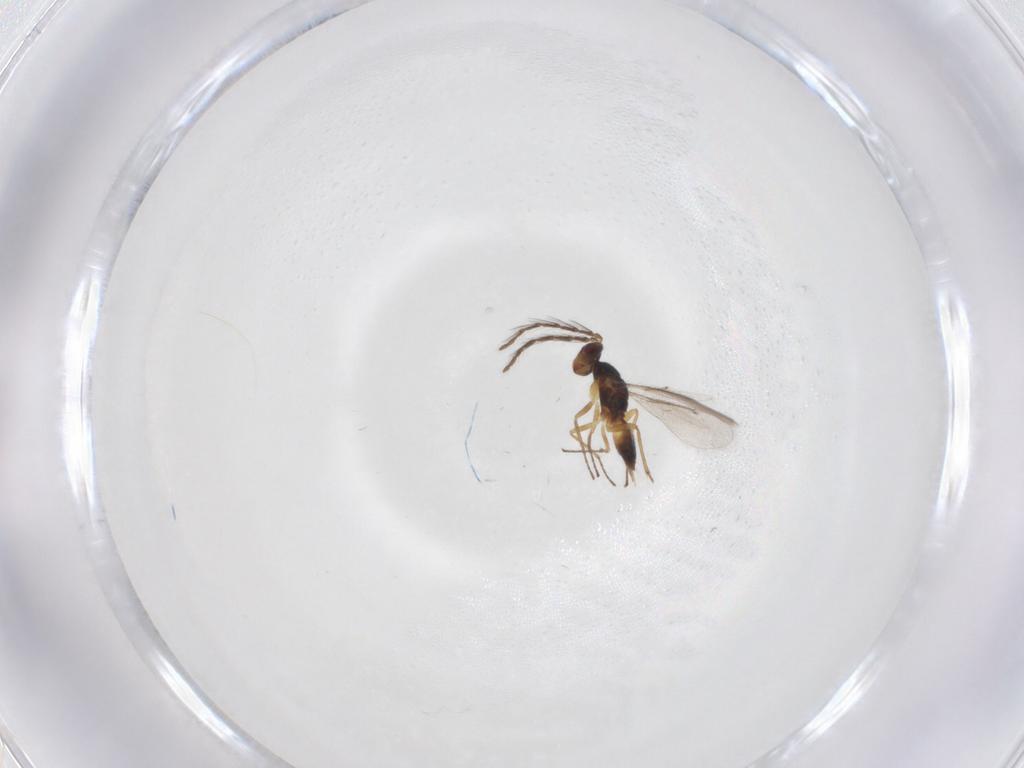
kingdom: Animalia
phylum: Arthropoda
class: Insecta
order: Hymenoptera
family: Eulophidae
